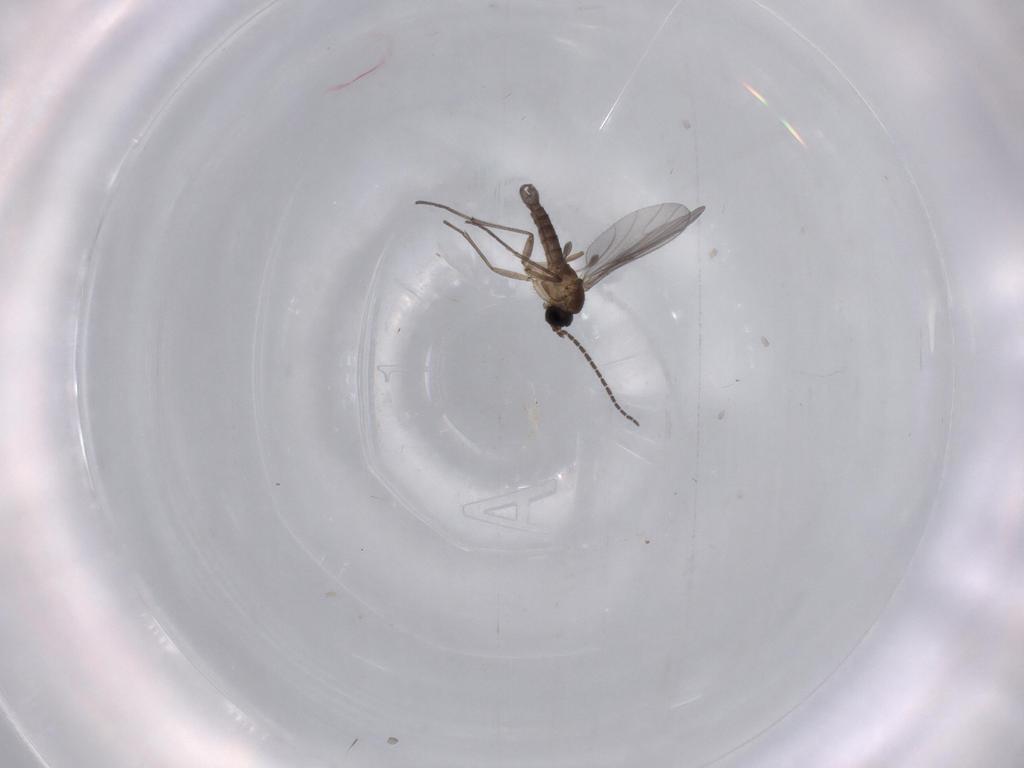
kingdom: Animalia
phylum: Arthropoda
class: Insecta
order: Diptera
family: Sciaridae
